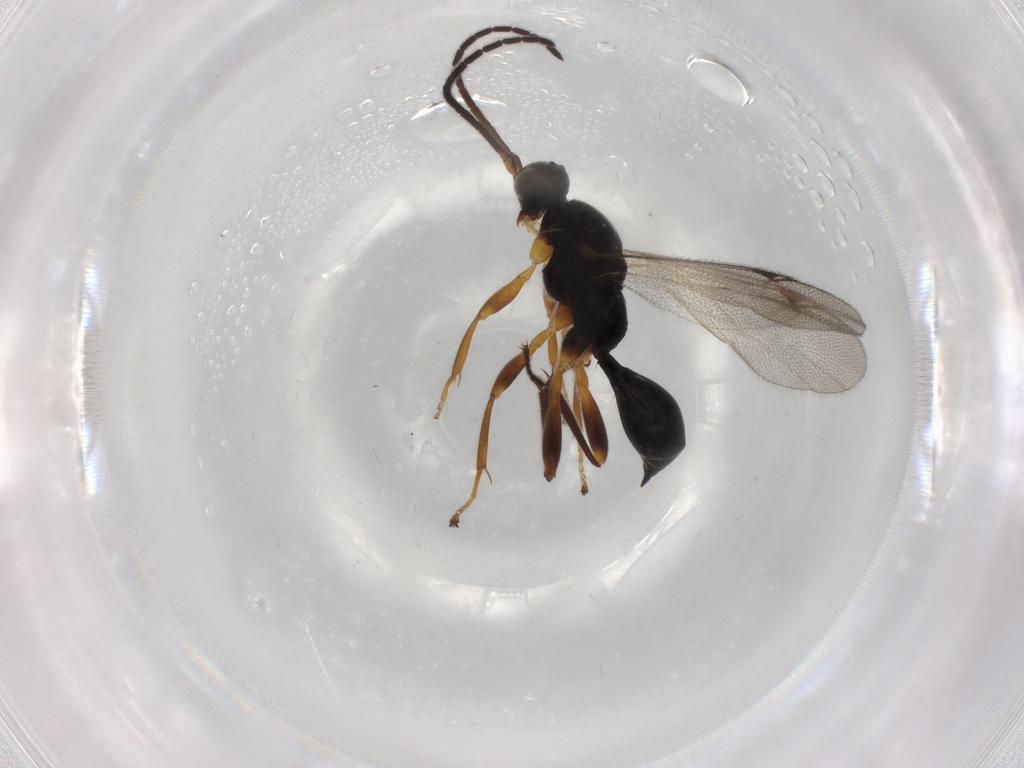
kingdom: Animalia
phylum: Arthropoda
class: Insecta
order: Hymenoptera
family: Proctotrupidae
